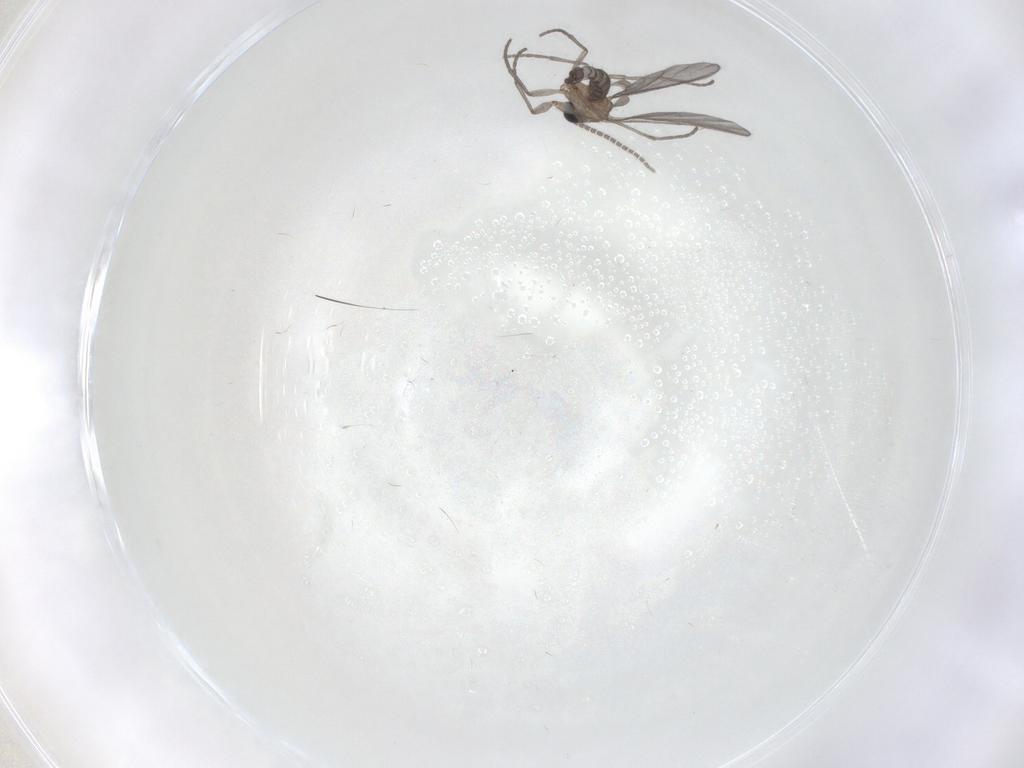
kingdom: Animalia
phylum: Arthropoda
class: Insecta
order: Diptera
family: Sciaridae
